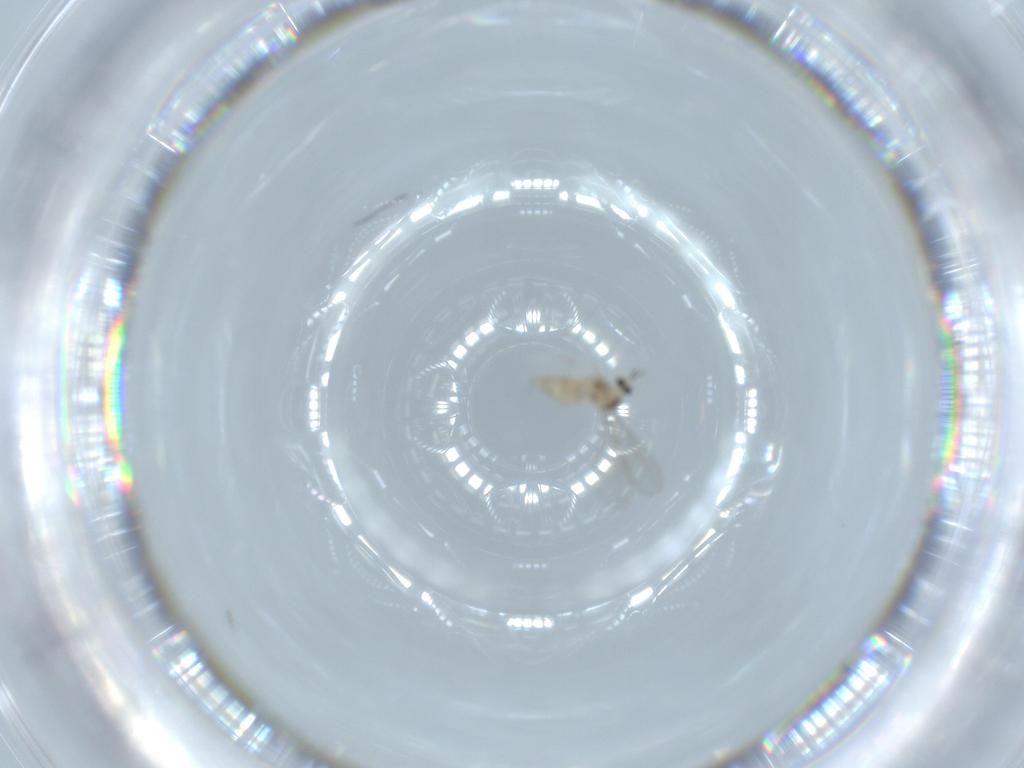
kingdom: Animalia
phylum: Arthropoda
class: Insecta
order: Diptera
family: Cecidomyiidae
